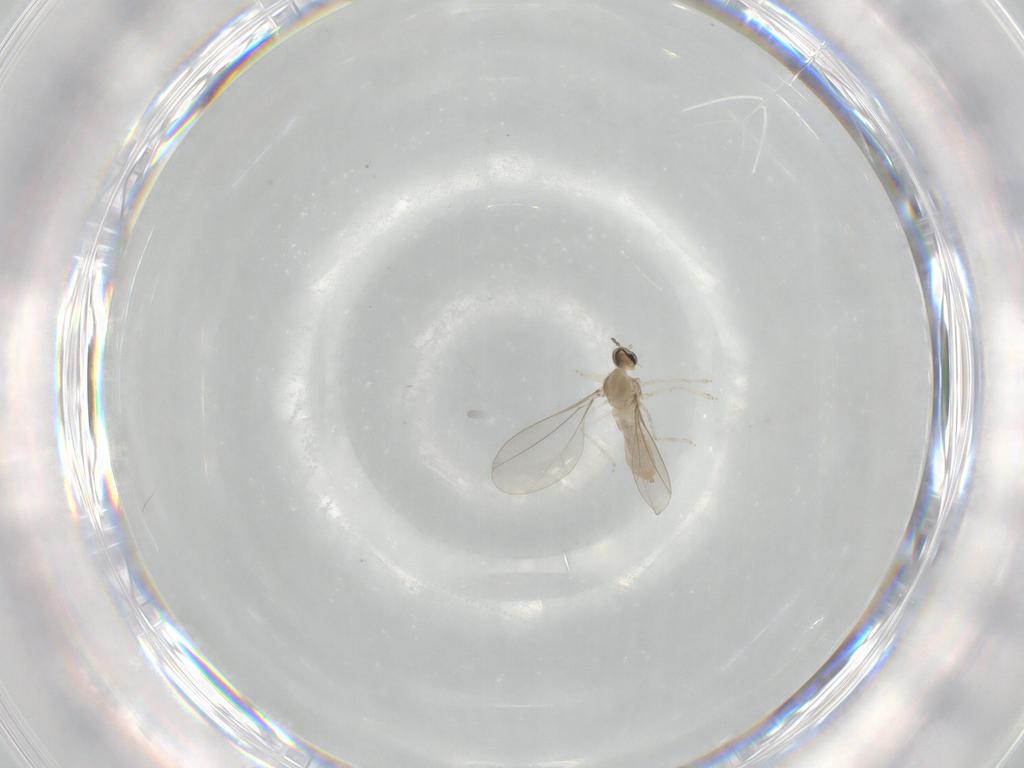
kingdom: Animalia
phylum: Arthropoda
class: Insecta
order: Diptera
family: Cecidomyiidae
